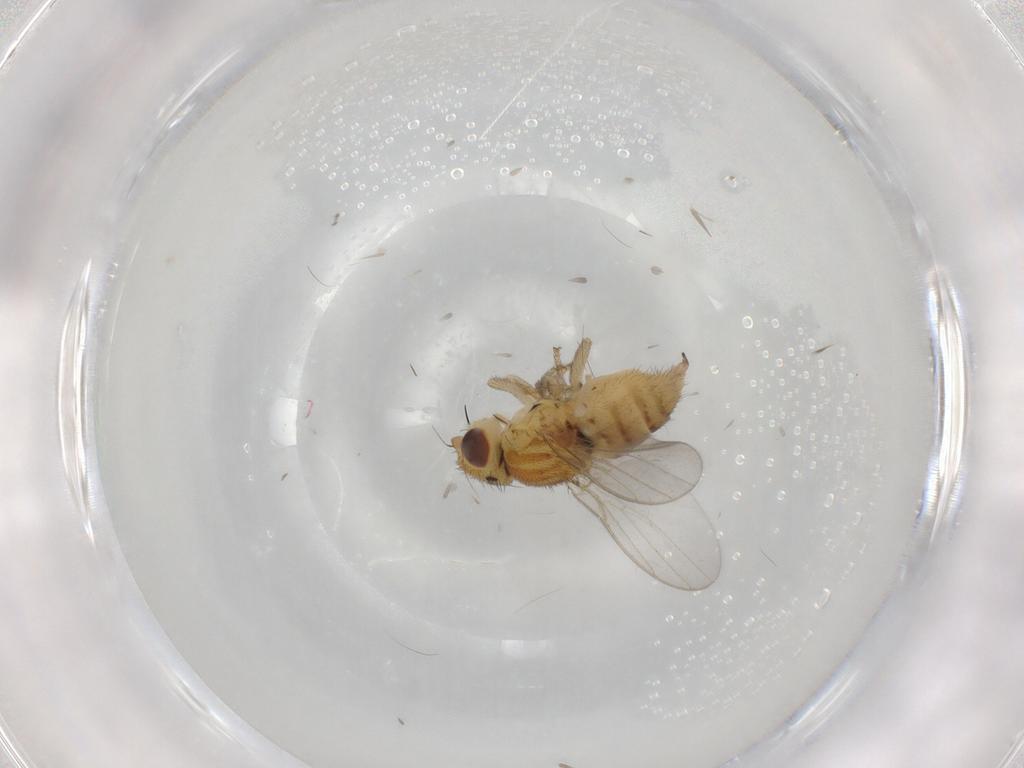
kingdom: Animalia
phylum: Arthropoda
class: Insecta
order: Diptera
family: Chloropidae
